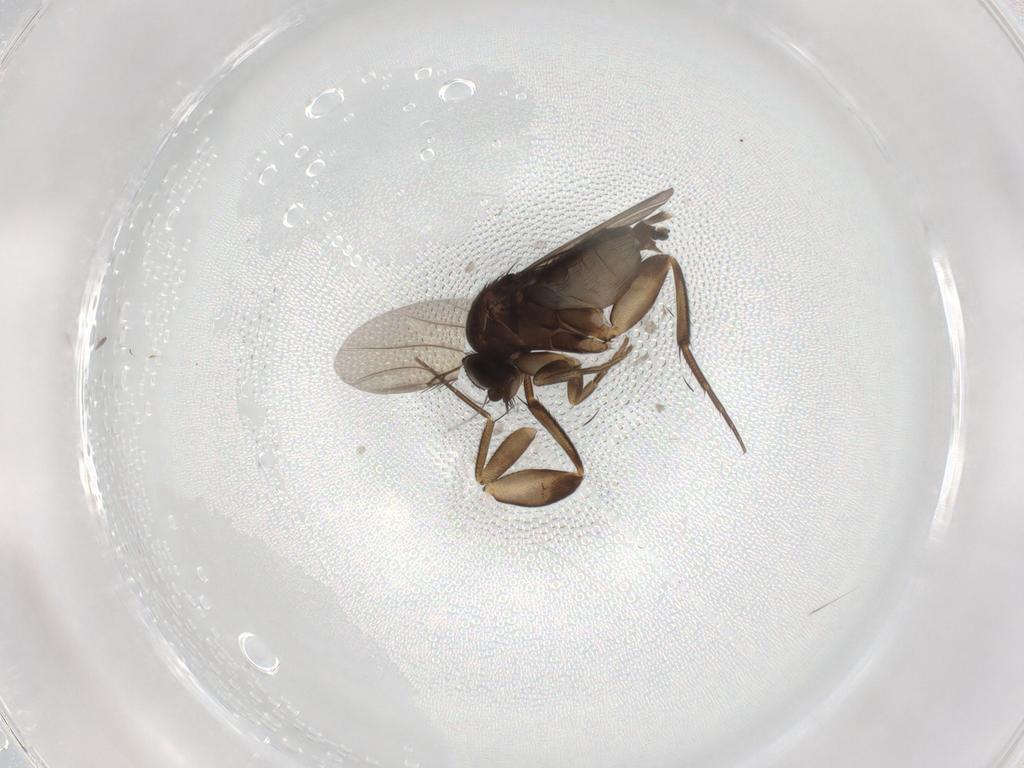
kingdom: Animalia
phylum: Arthropoda
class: Insecta
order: Diptera
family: Phoridae
